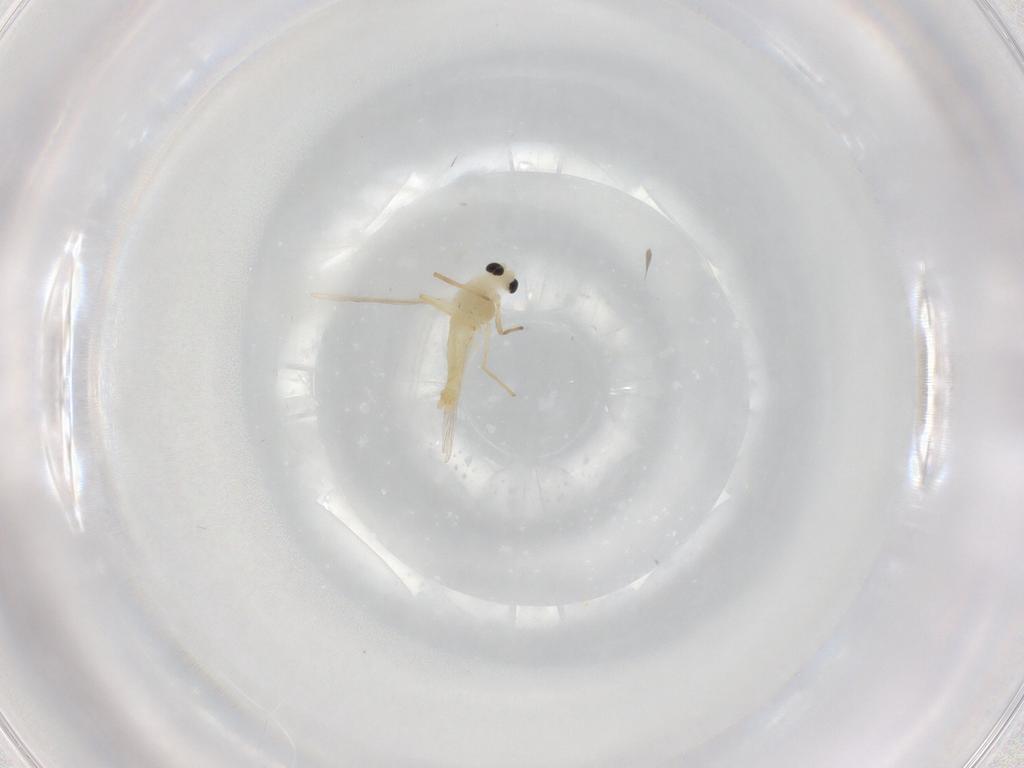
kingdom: Animalia
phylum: Arthropoda
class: Insecta
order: Diptera
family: Chironomidae
